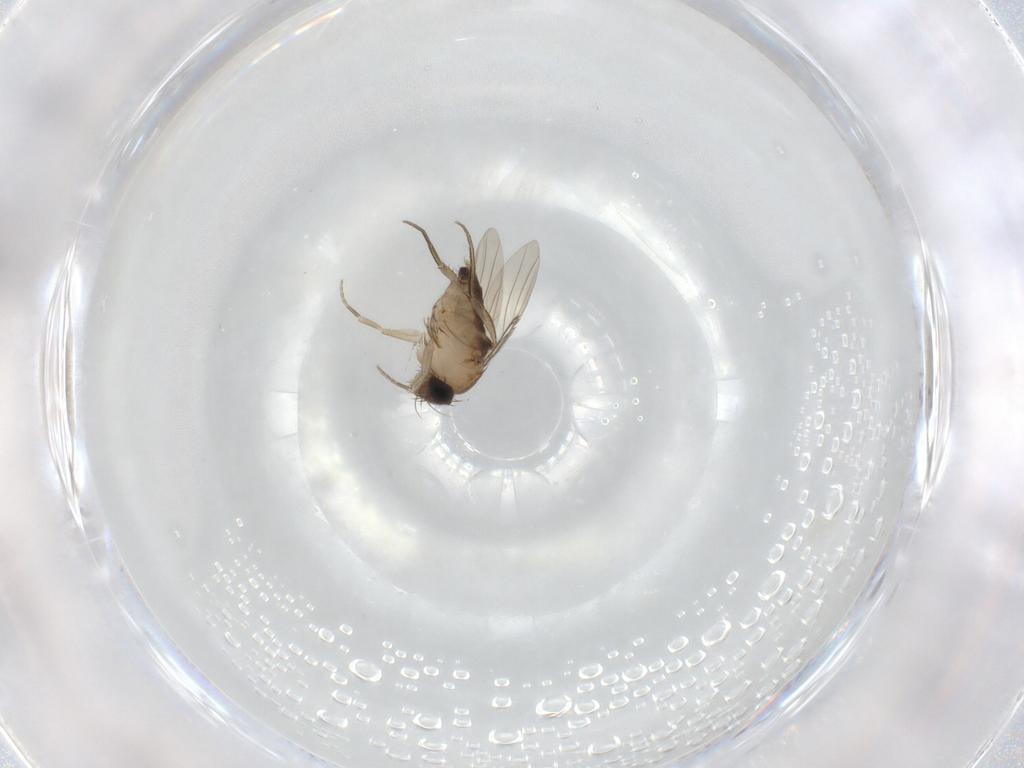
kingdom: Animalia
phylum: Arthropoda
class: Insecta
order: Diptera
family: Phoridae
